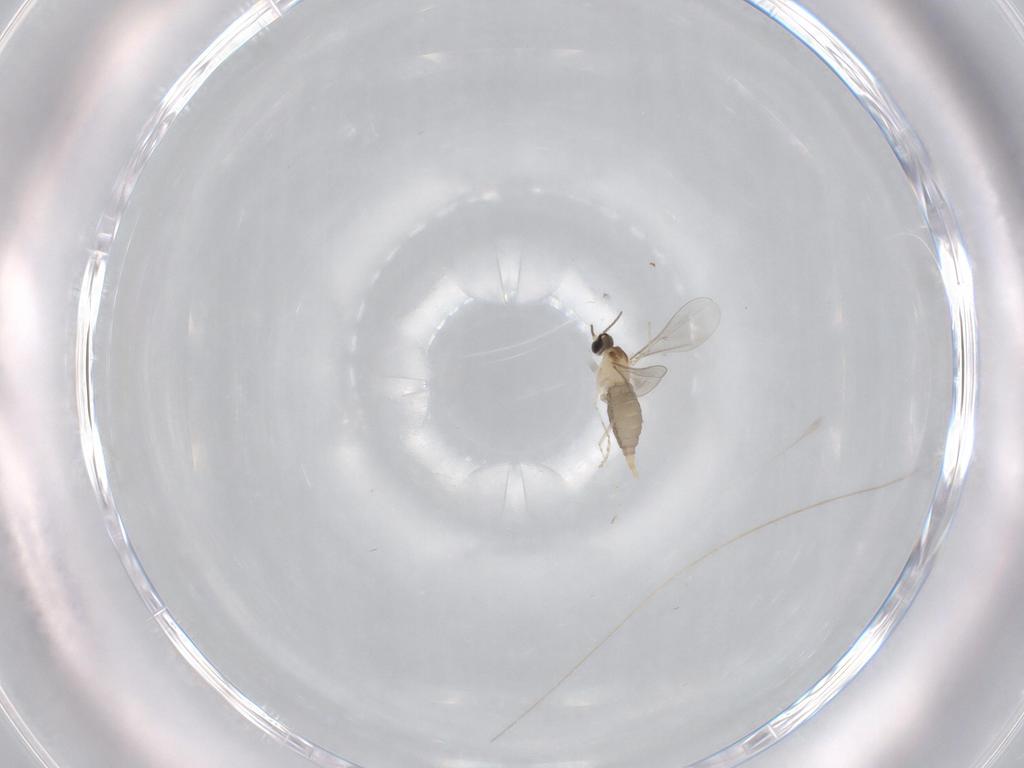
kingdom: Animalia
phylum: Arthropoda
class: Insecta
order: Diptera
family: Cecidomyiidae
